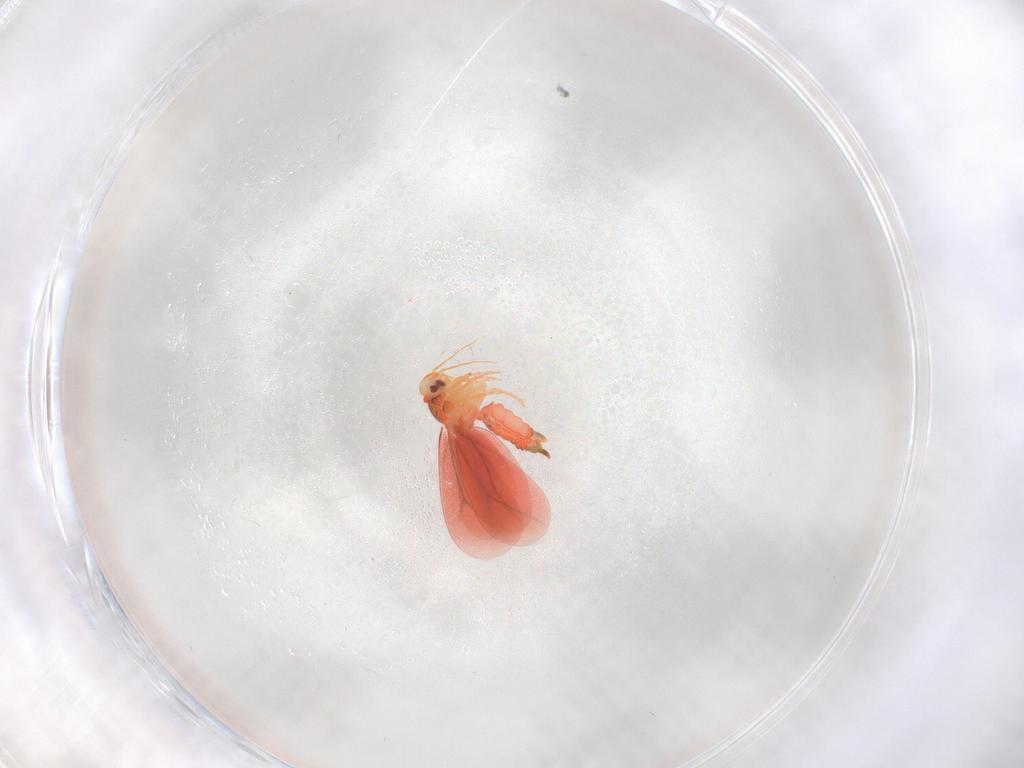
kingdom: Animalia
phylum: Arthropoda
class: Insecta
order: Hemiptera
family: Aleyrodidae
